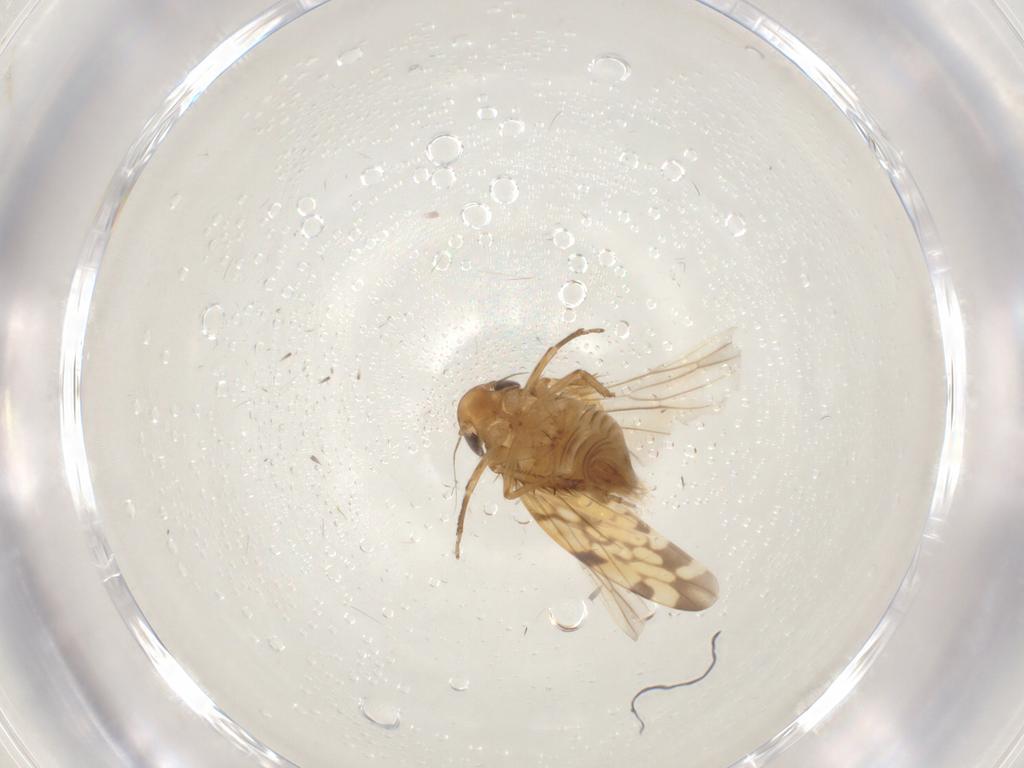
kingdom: Animalia
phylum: Arthropoda
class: Insecta
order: Hemiptera
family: Cicadellidae
